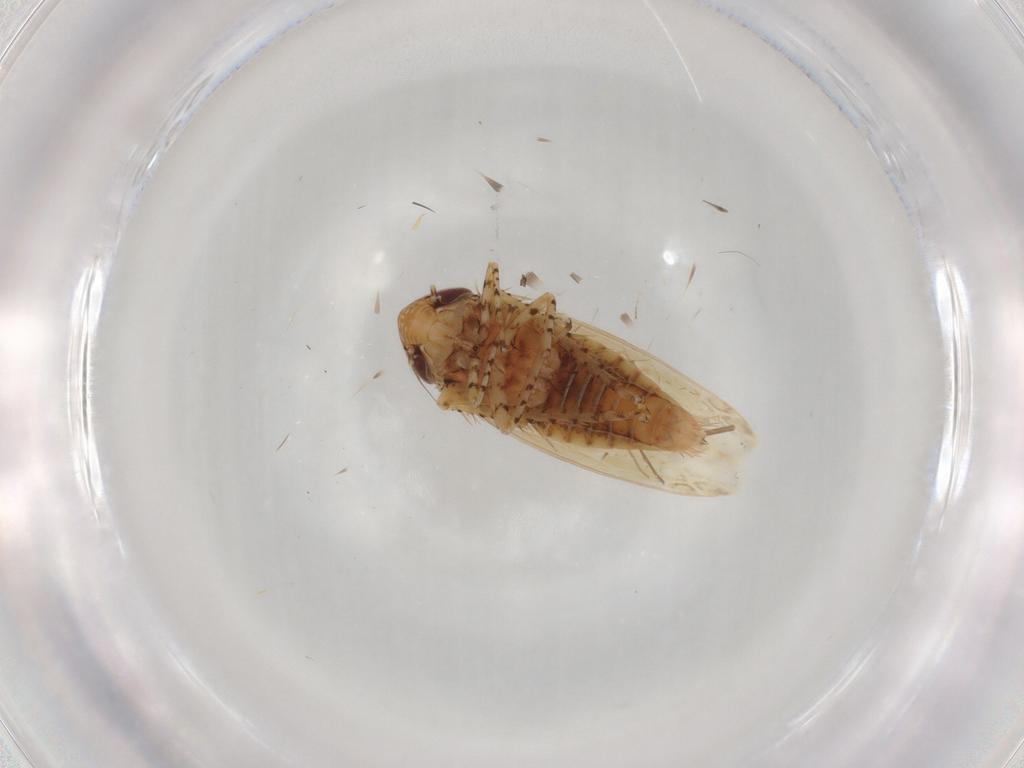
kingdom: Animalia
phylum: Arthropoda
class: Insecta
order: Hemiptera
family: Cicadellidae
